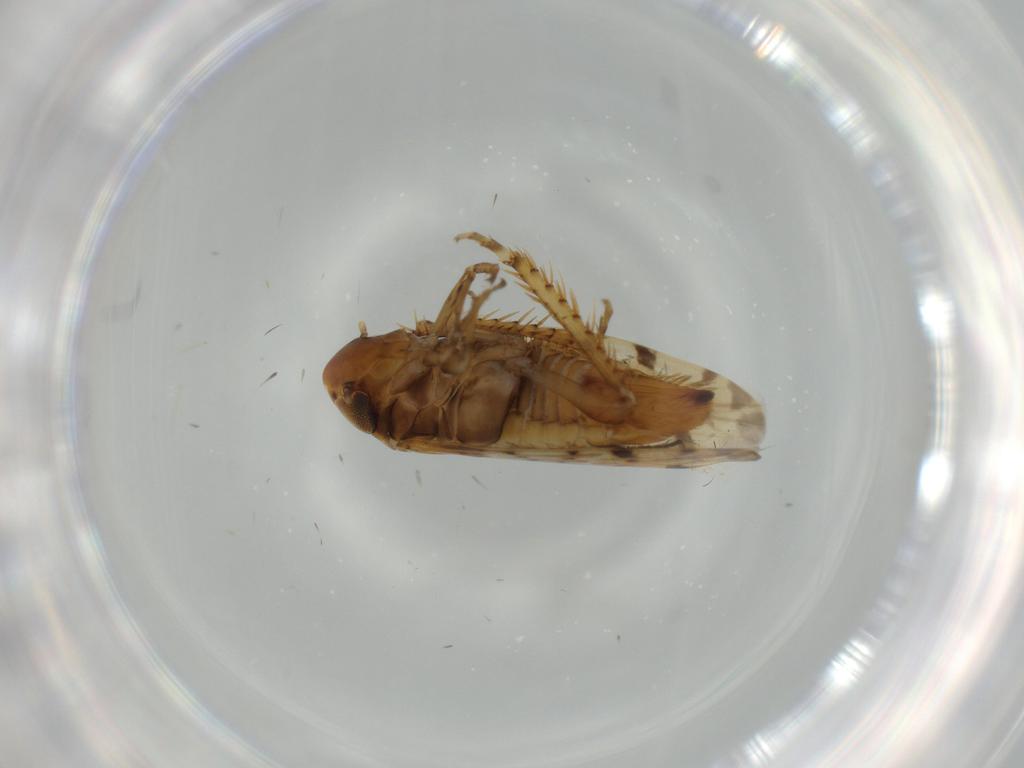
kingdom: Animalia
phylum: Arthropoda
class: Insecta
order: Hemiptera
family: Cicadellidae
